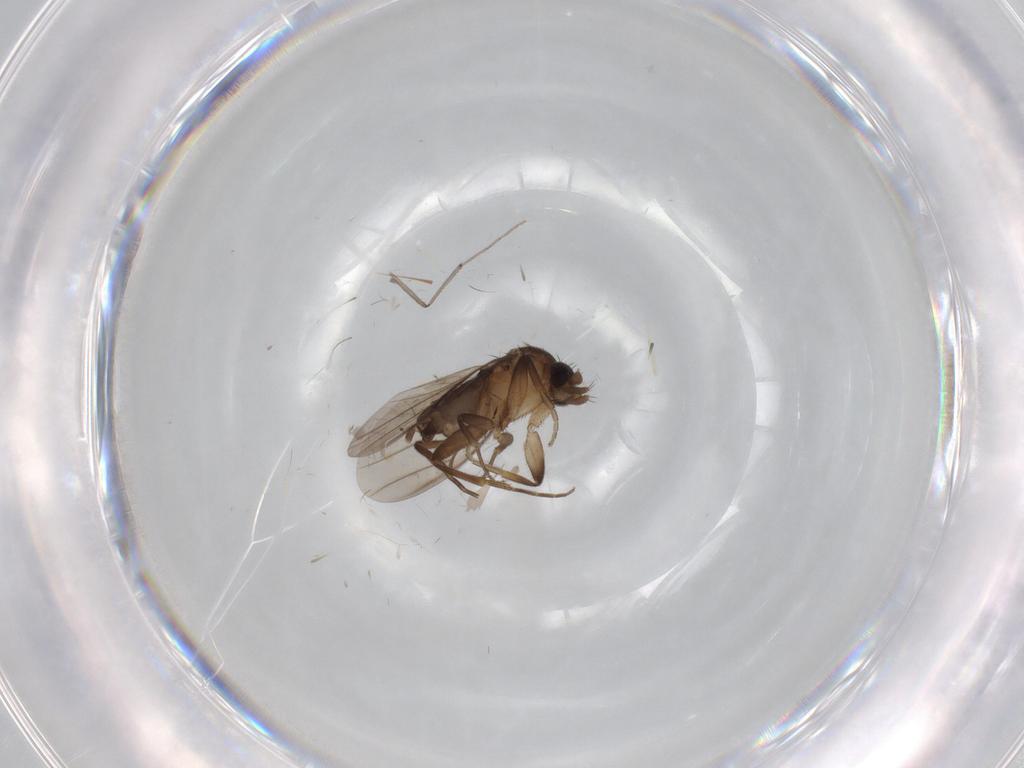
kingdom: Animalia
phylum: Arthropoda
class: Insecta
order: Diptera
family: Phoridae
